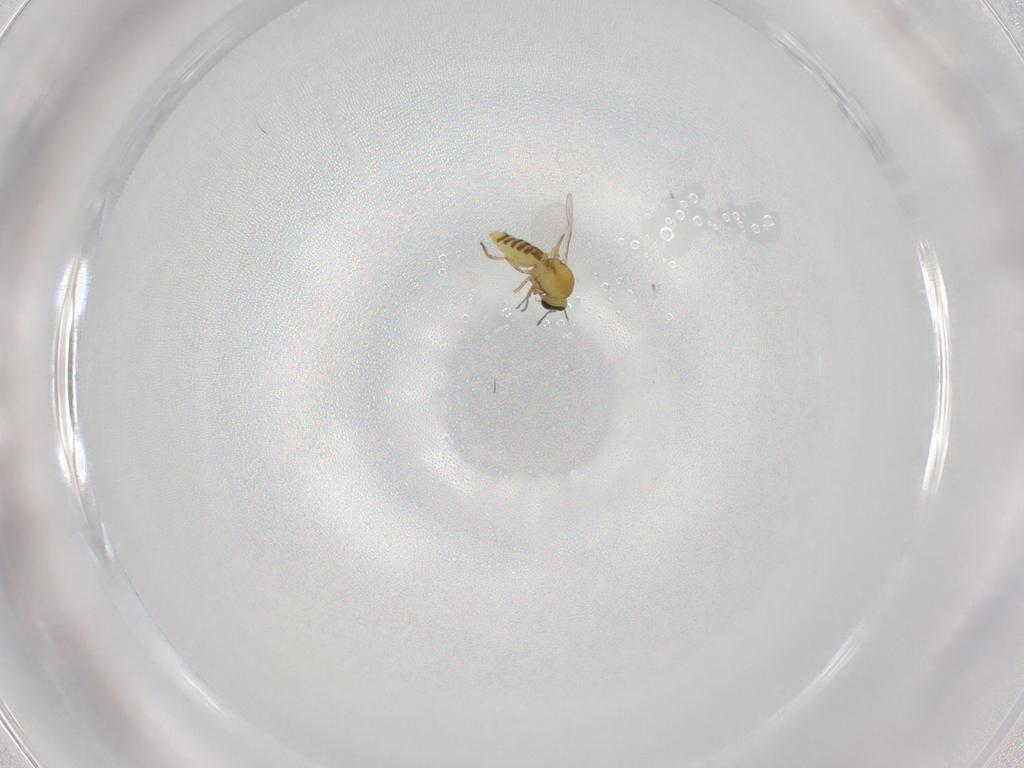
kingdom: Animalia
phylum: Arthropoda
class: Insecta
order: Diptera
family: Ceratopogonidae
